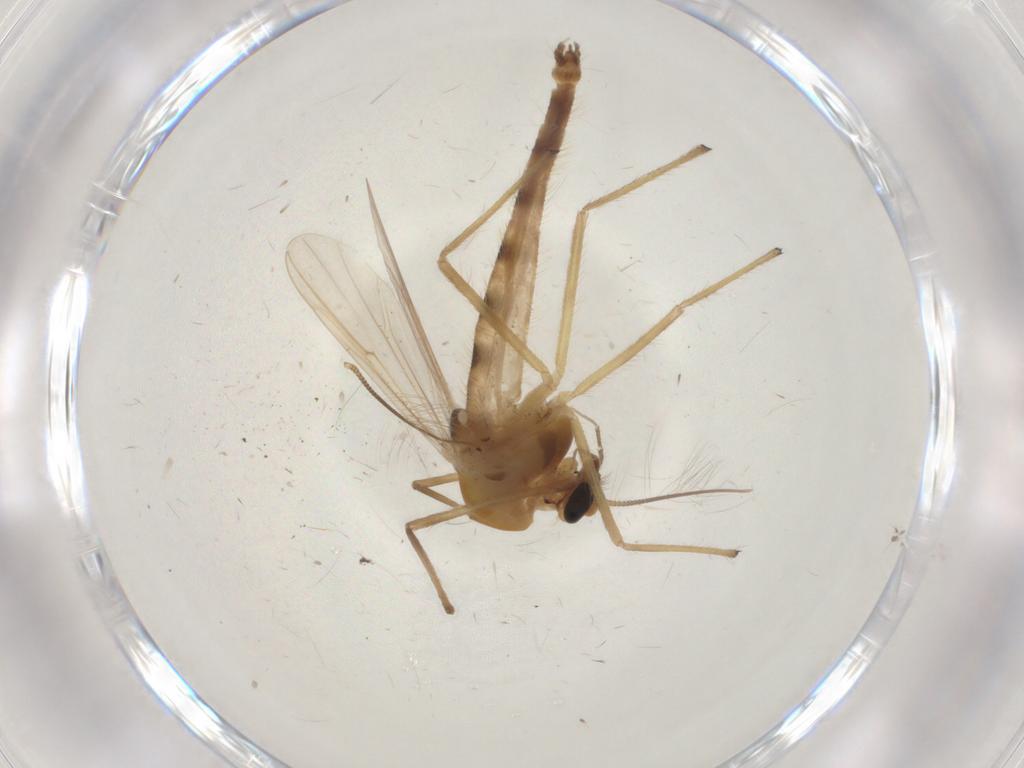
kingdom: Animalia
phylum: Arthropoda
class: Insecta
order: Diptera
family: Chironomidae
